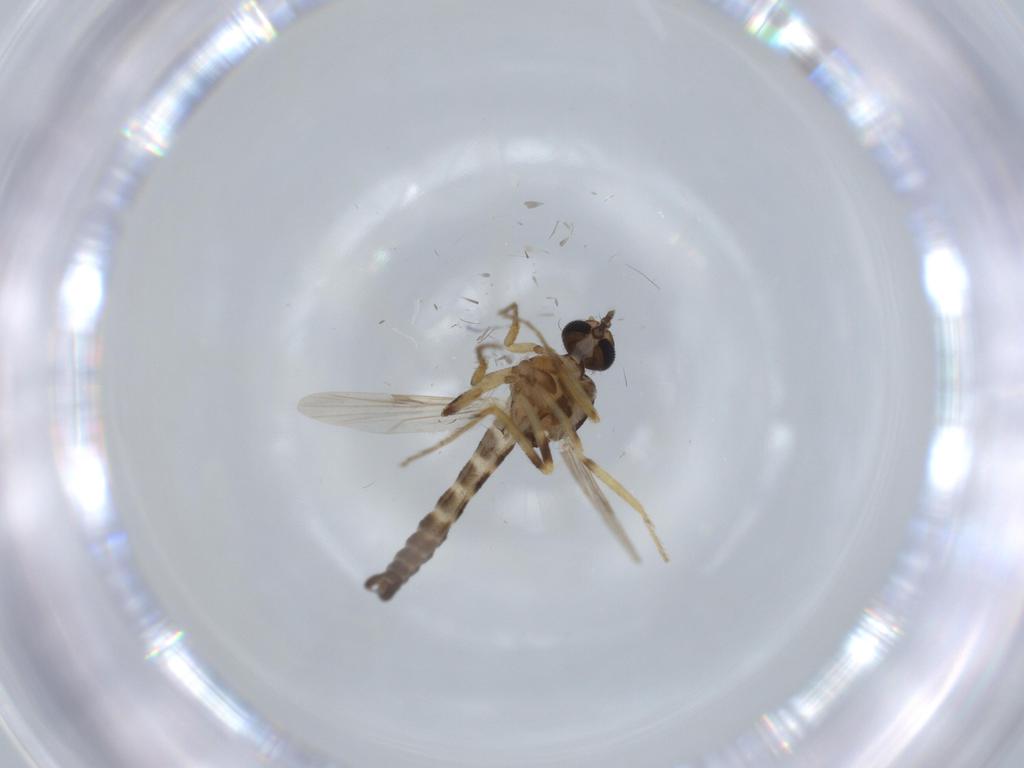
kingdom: Animalia
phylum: Arthropoda
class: Insecta
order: Diptera
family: Ceratopogonidae
